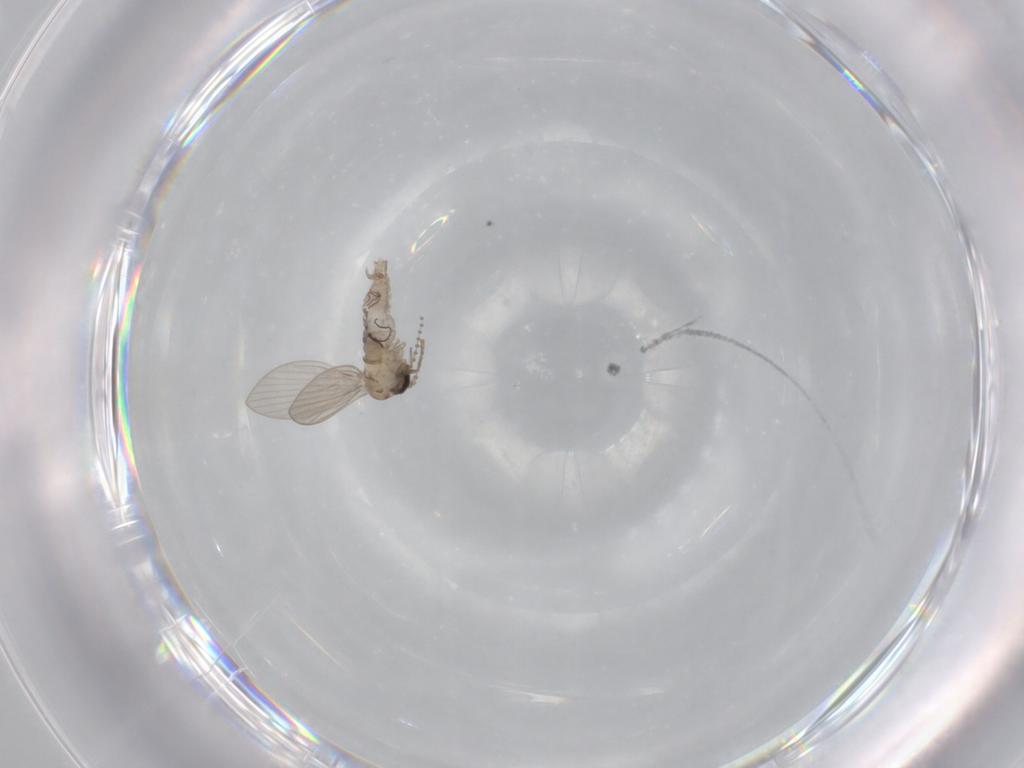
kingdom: Animalia
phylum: Arthropoda
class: Insecta
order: Diptera
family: Psychodidae
